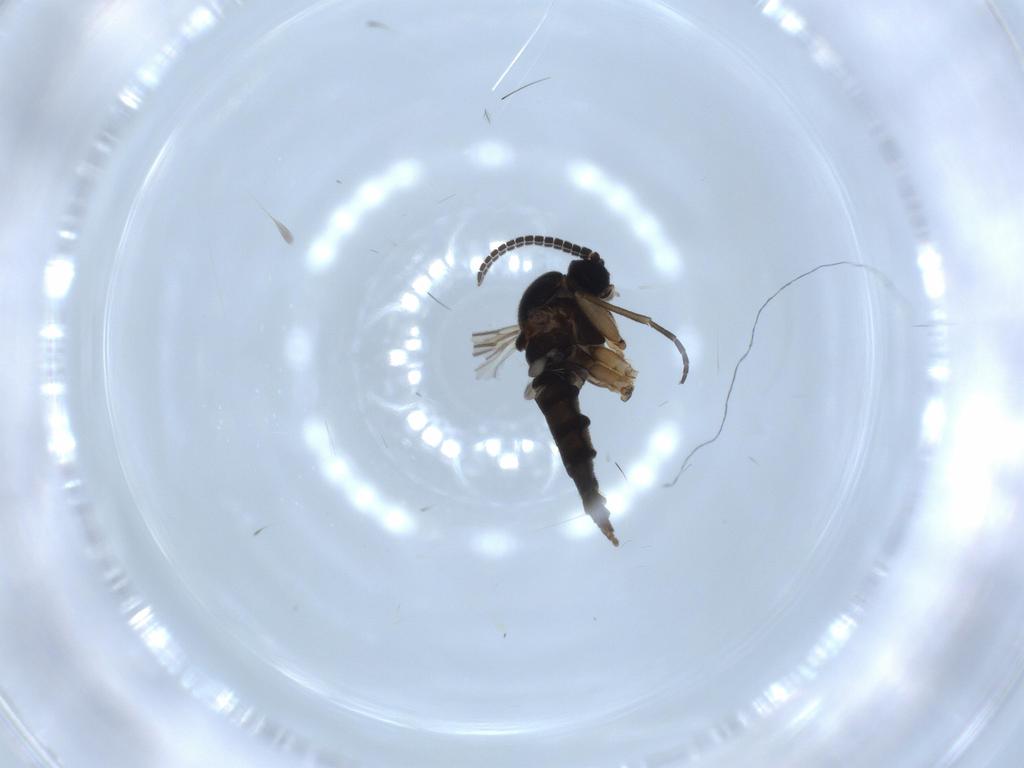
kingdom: Animalia
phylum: Arthropoda
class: Insecta
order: Diptera
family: Sciaridae
